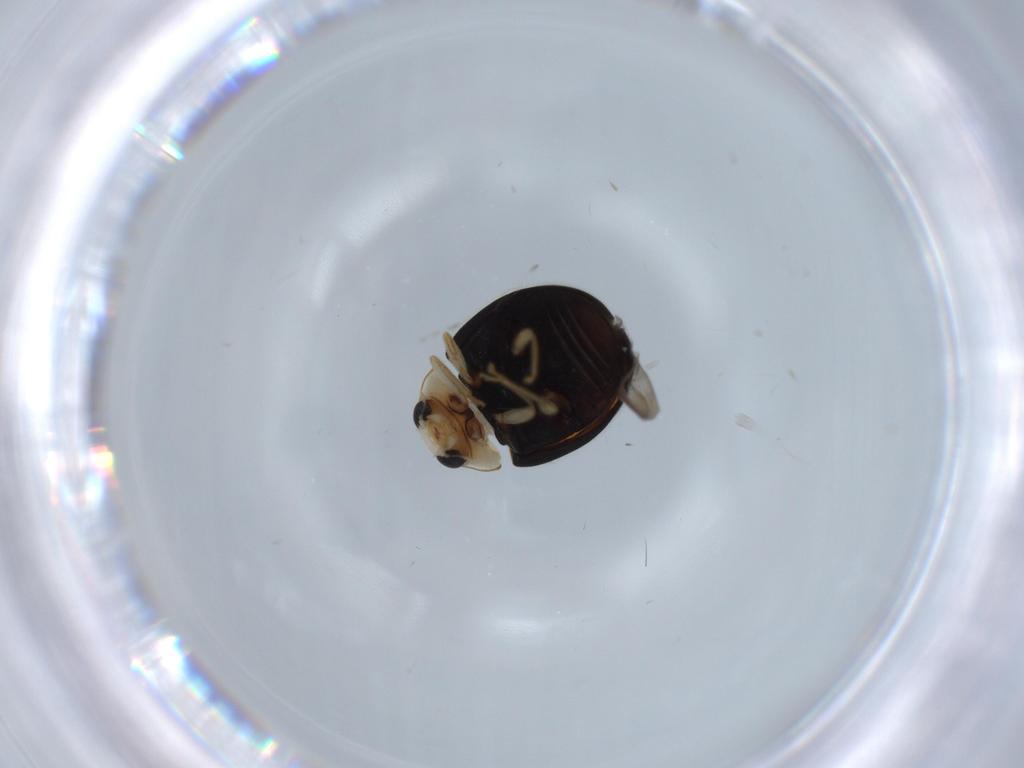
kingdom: Animalia
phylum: Arthropoda
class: Insecta
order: Coleoptera
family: Coccinellidae
